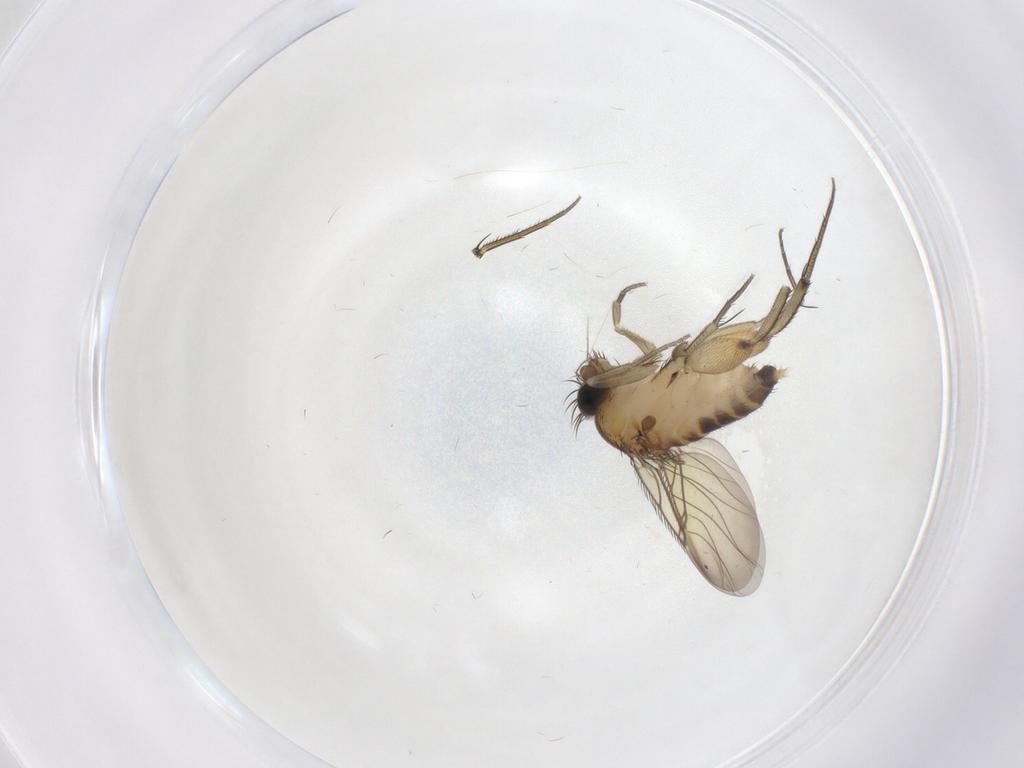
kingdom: Animalia
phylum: Arthropoda
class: Insecta
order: Diptera
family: Phoridae
